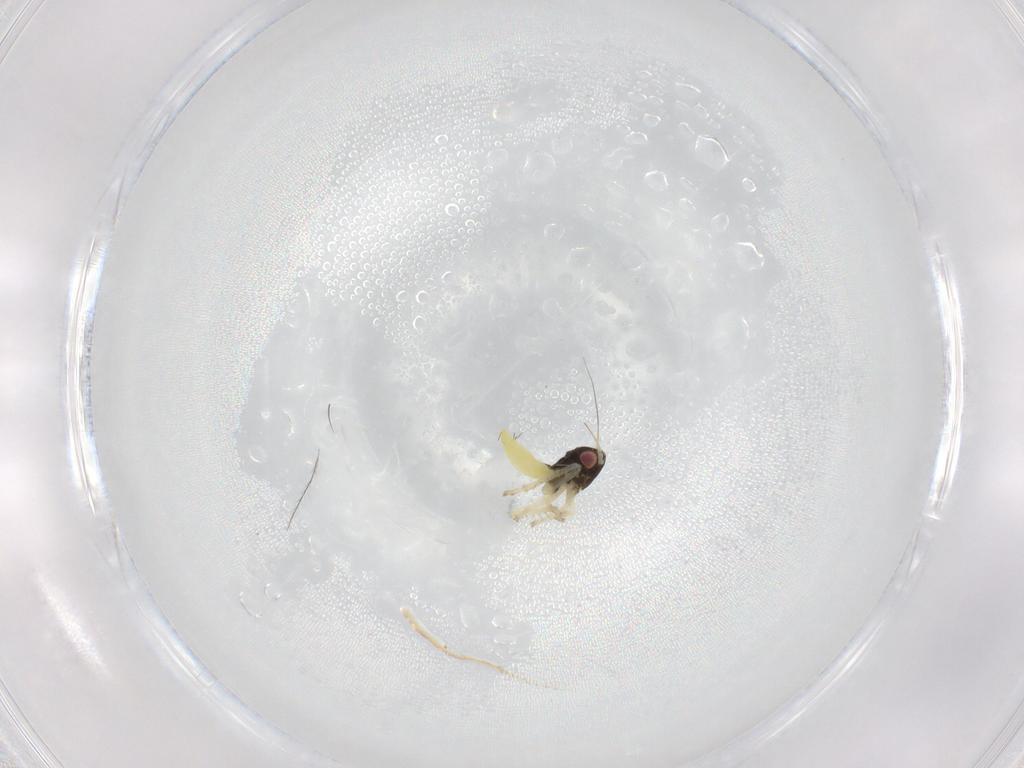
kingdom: Animalia
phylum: Arthropoda
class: Insecta
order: Hemiptera
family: Cicadellidae
